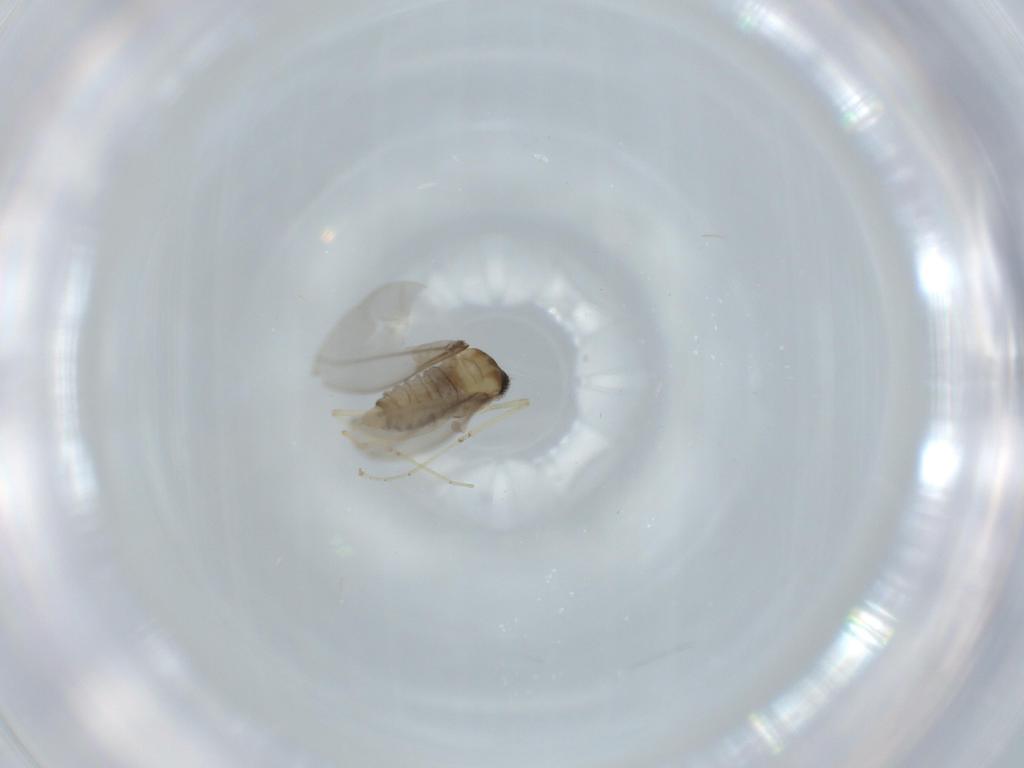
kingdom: Animalia
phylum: Arthropoda
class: Insecta
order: Diptera
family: Cecidomyiidae
